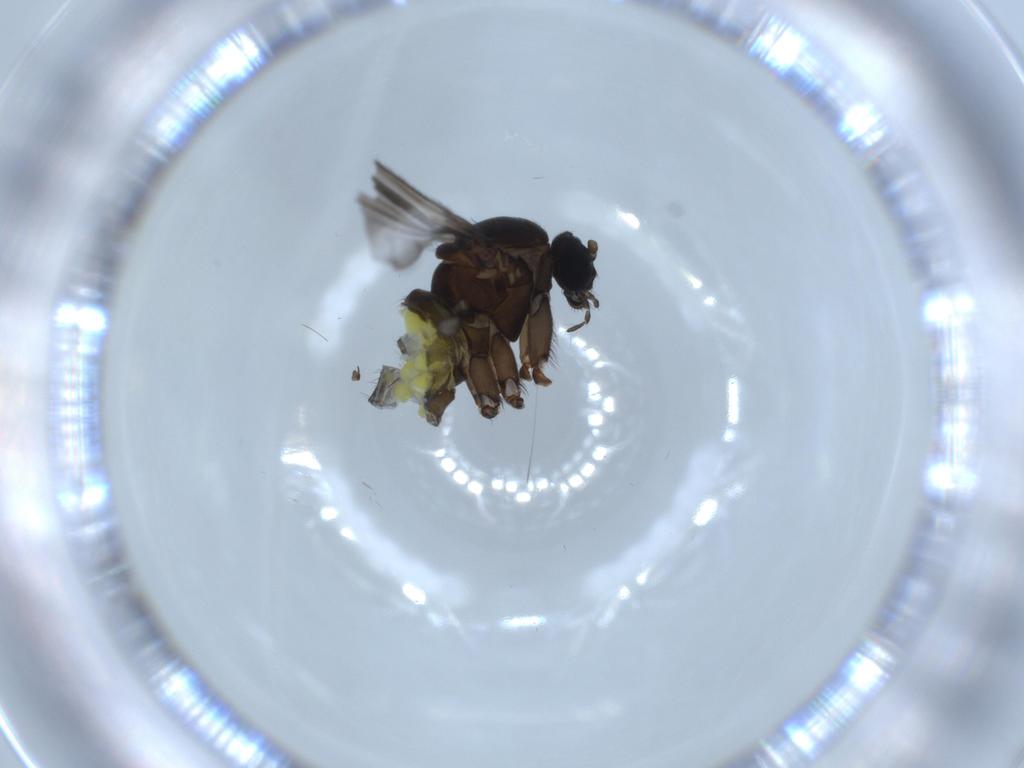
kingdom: Animalia
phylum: Arthropoda
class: Insecta
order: Diptera
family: Sciaridae
